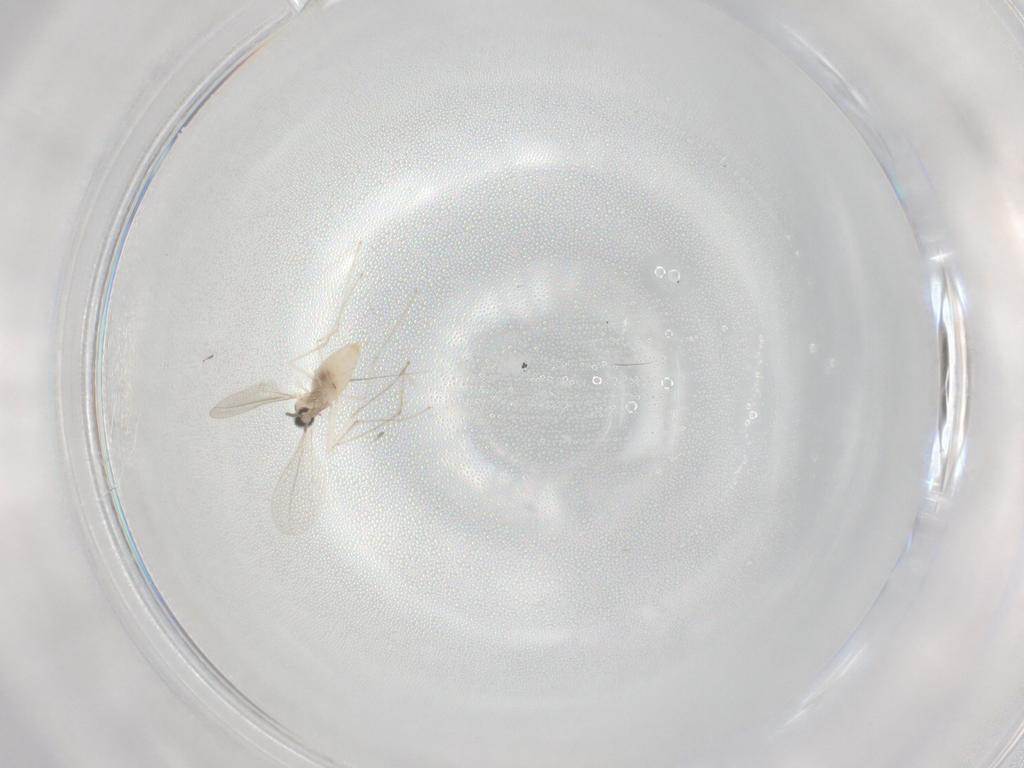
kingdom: Animalia
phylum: Arthropoda
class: Insecta
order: Diptera
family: Cecidomyiidae
